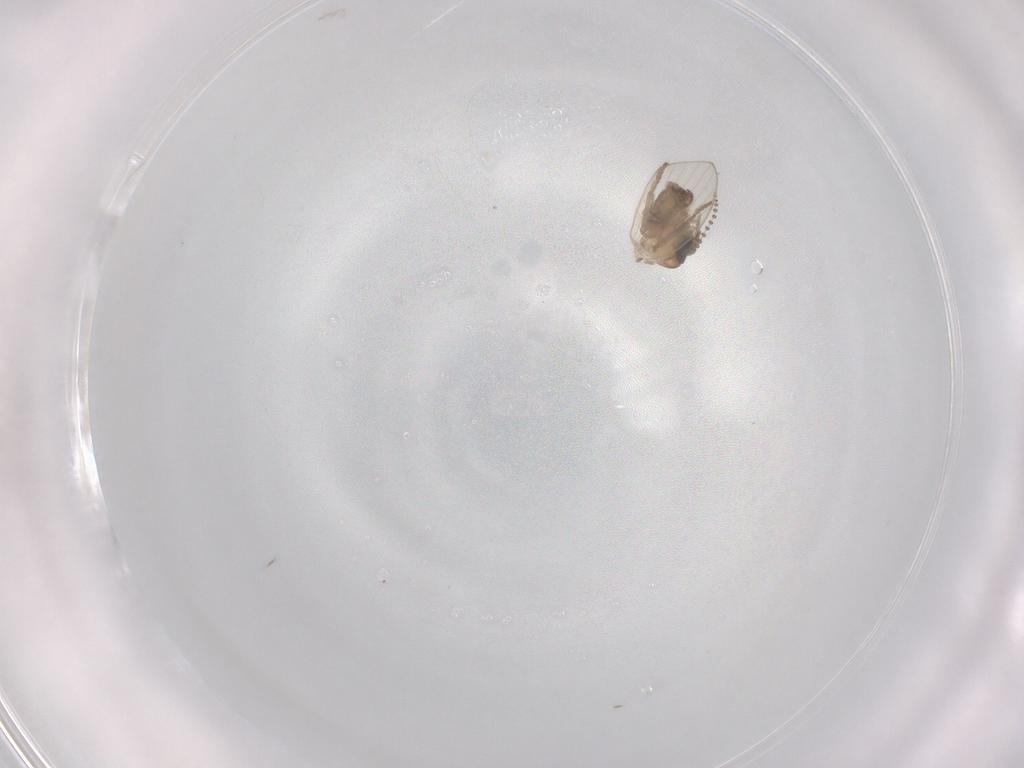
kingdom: Animalia
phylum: Arthropoda
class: Insecta
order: Diptera
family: Psychodidae
